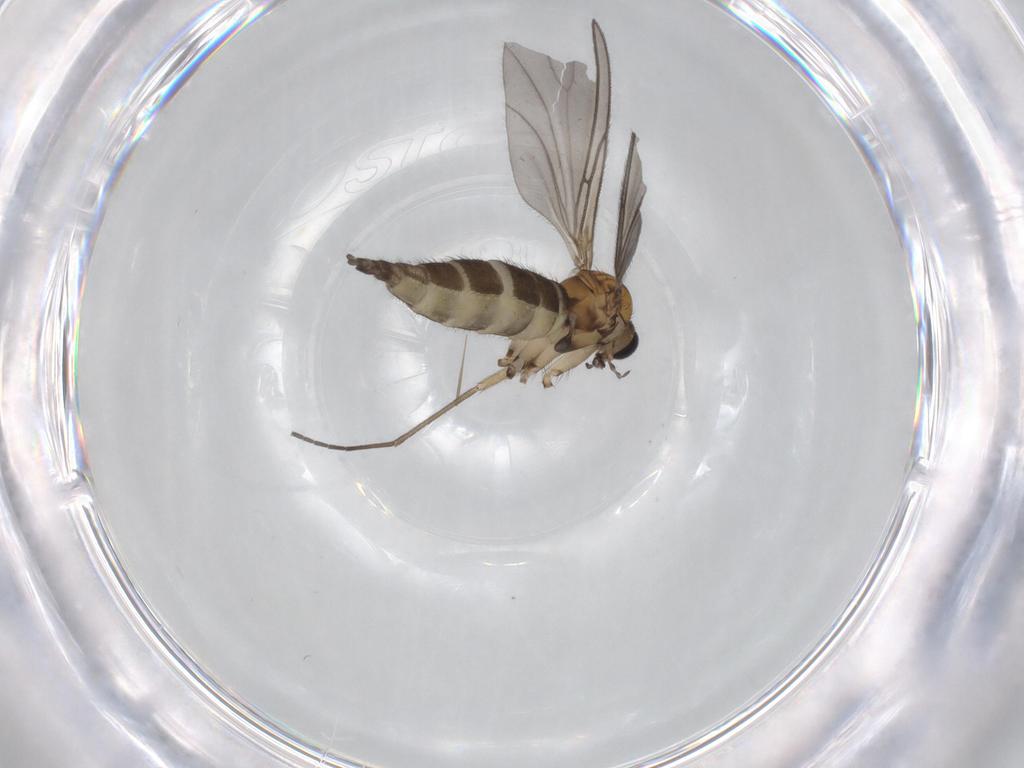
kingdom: Animalia
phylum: Arthropoda
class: Insecta
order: Diptera
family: Sciaridae
